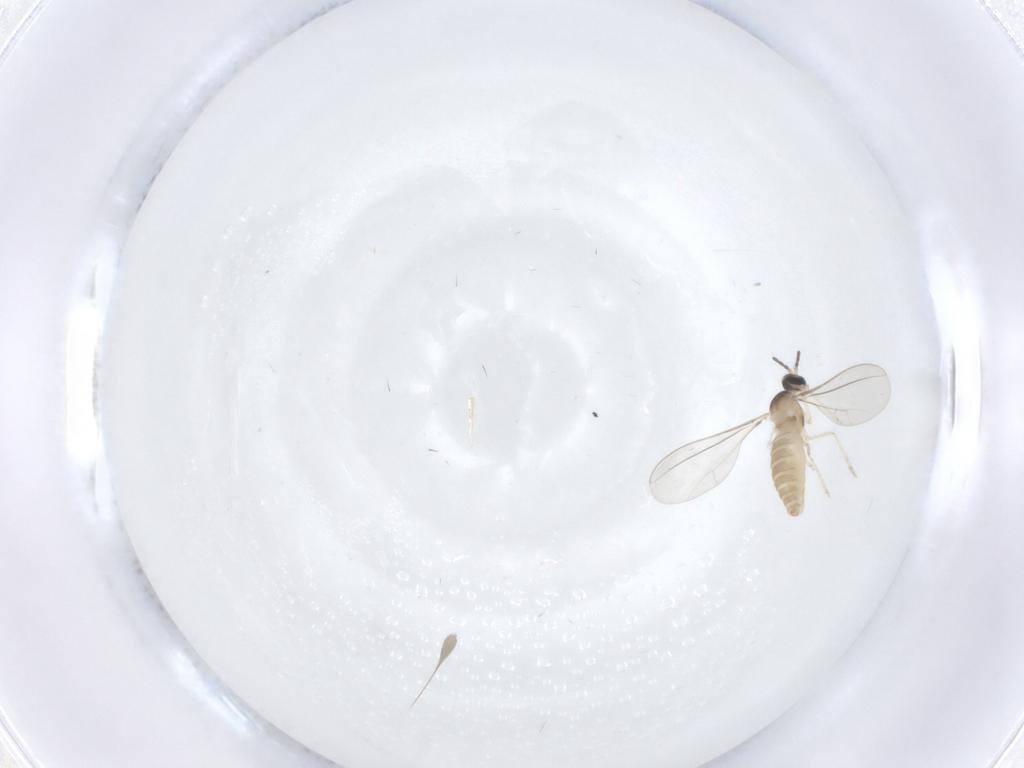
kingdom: Animalia
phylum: Arthropoda
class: Insecta
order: Diptera
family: Cecidomyiidae
